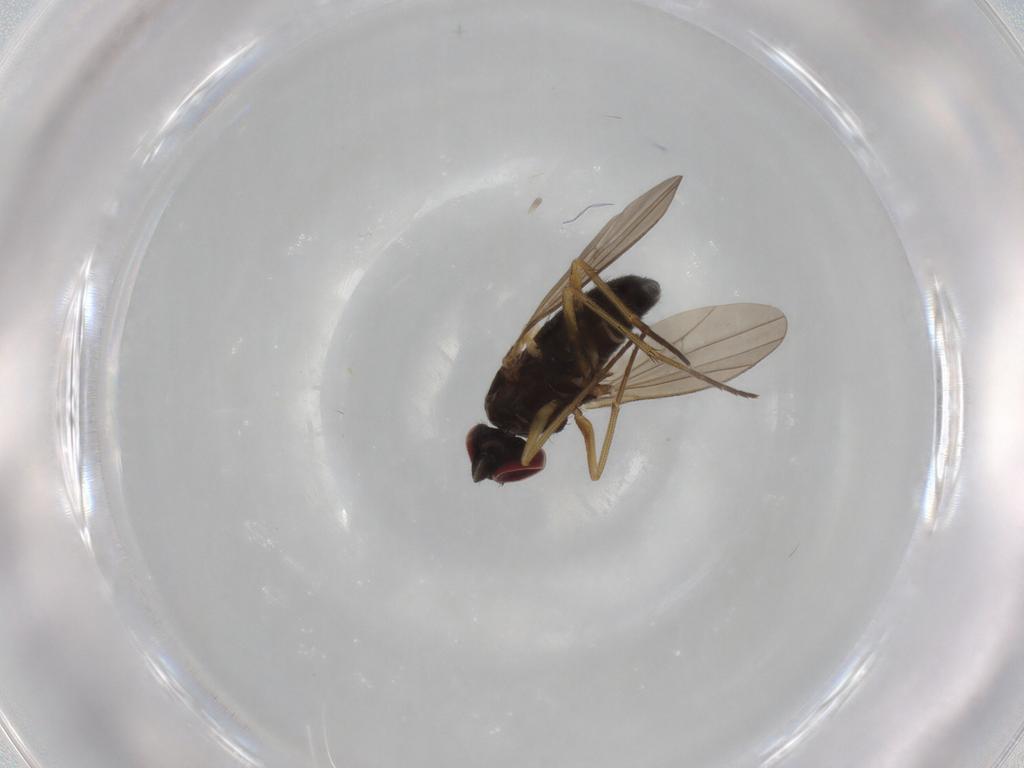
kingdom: Animalia
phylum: Arthropoda
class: Insecta
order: Diptera
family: Cecidomyiidae
